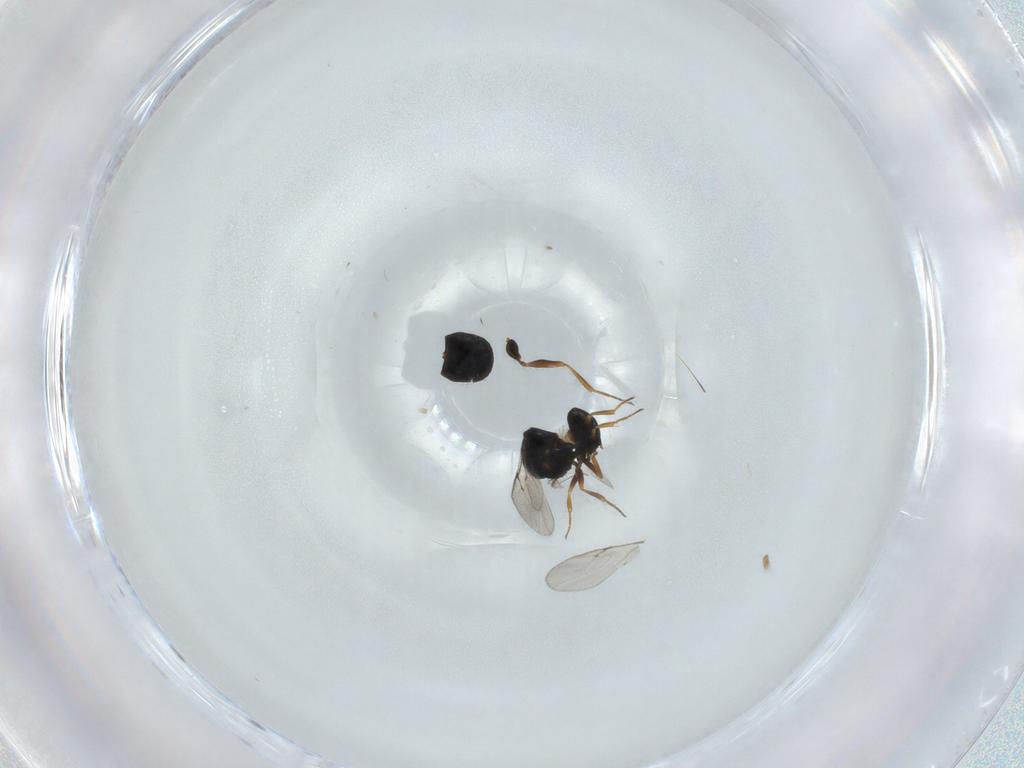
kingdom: Animalia
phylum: Arthropoda
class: Insecta
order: Hymenoptera
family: Scelionidae
